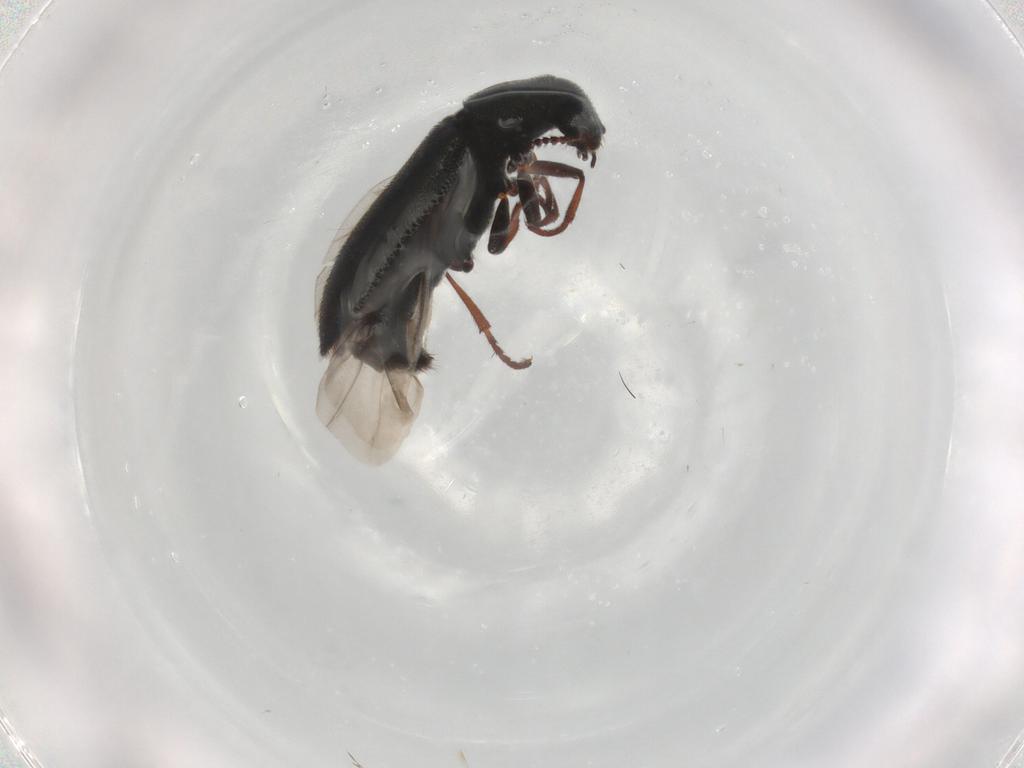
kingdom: Animalia
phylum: Arthropoda
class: Insecta
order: Coleoptera
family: Melyridae
